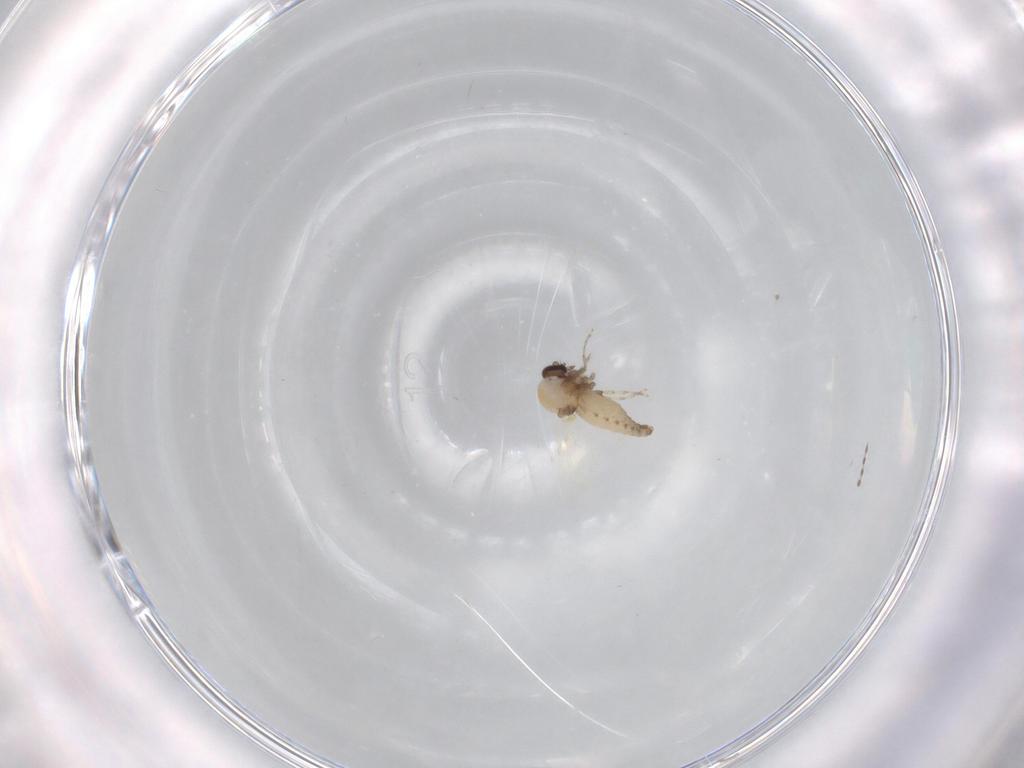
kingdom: Animalia
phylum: Arthropoda
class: Insecta
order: Diptera
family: Ceratopogonidae
